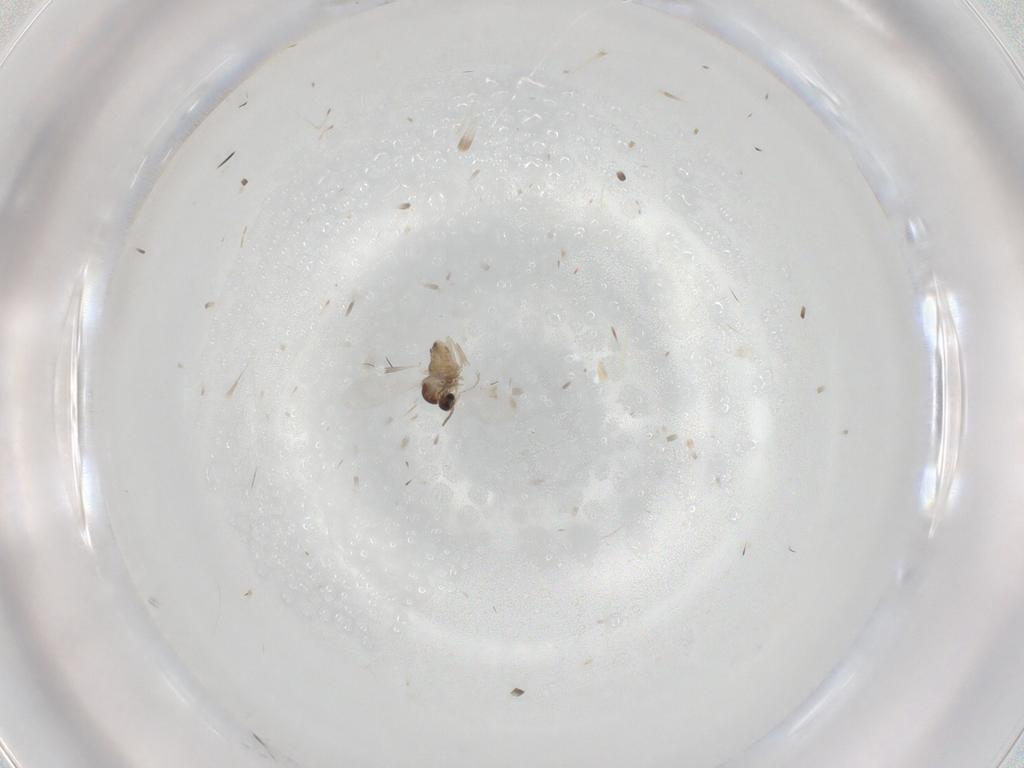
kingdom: Animalia
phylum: Arthropoda
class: Insecta
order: Diptera
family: Cecidomyiidae
